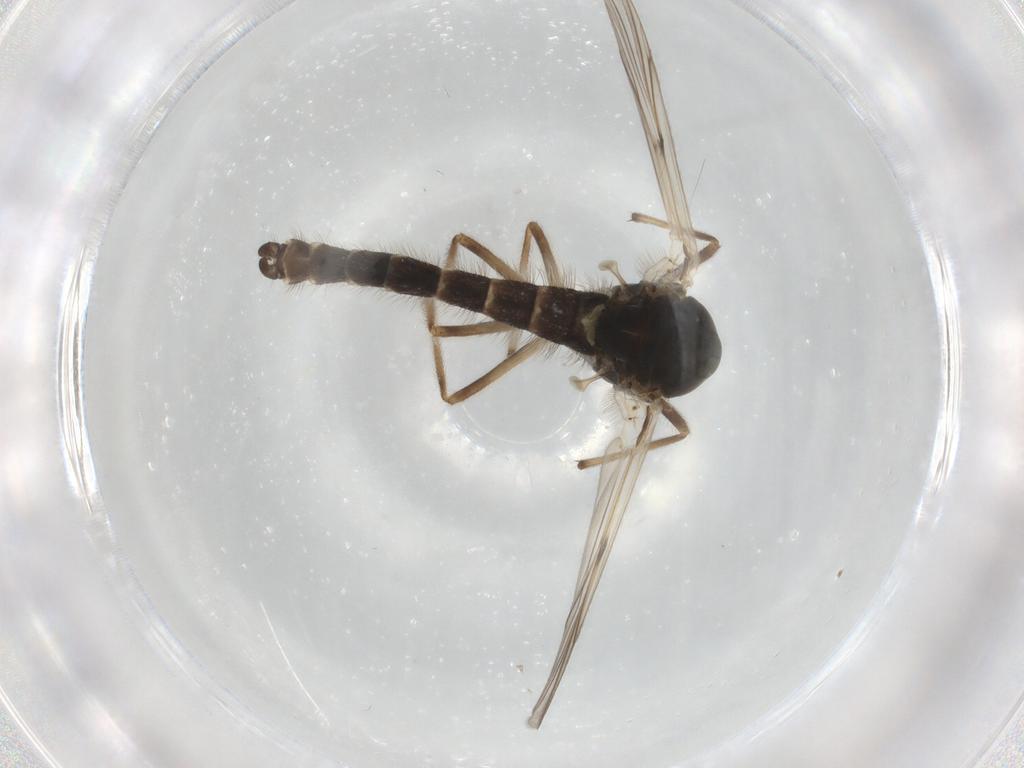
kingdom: Animalia
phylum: Arthropoda
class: Insecta
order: Diptera
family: Chironomidae
